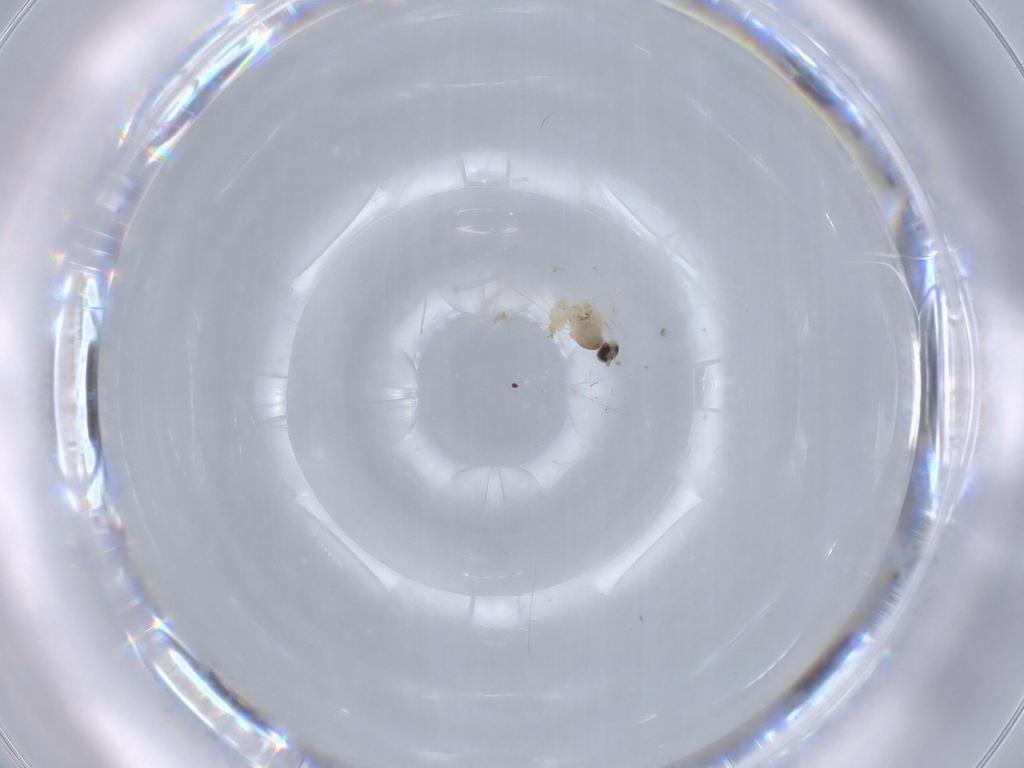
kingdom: Animalia
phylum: Arthropoda
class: Insecta
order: Diptera
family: Cecidomyiidae
